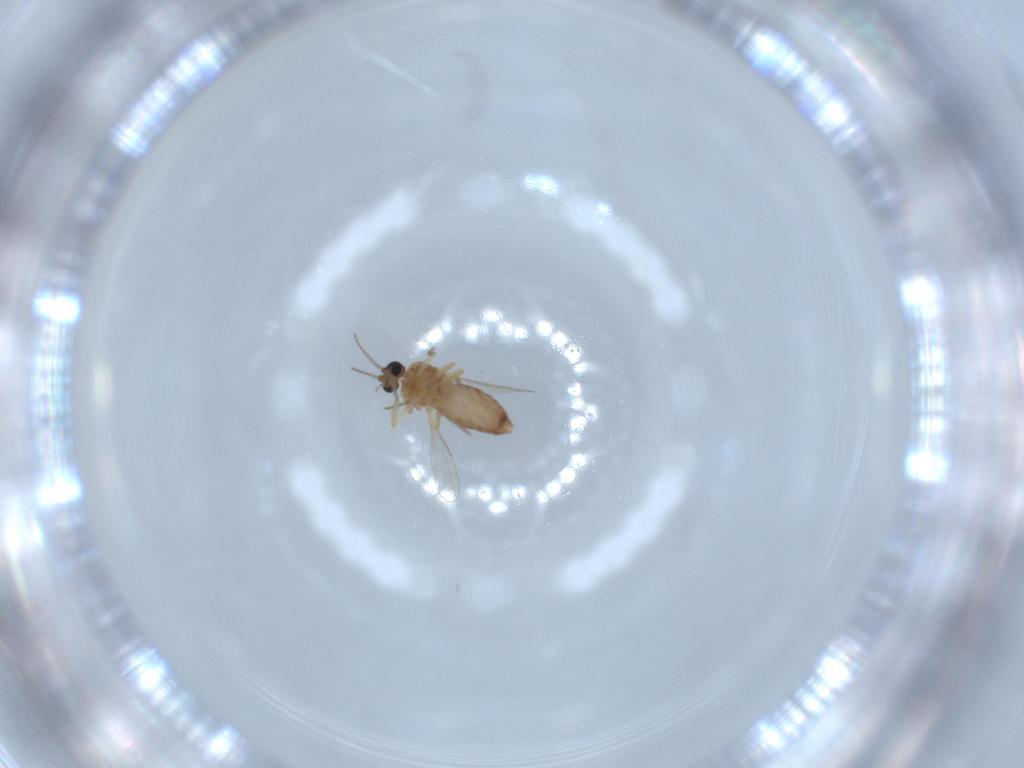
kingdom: Animalia
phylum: Arthropoda
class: Insecta
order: Diptera
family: Ceratopogonidae
